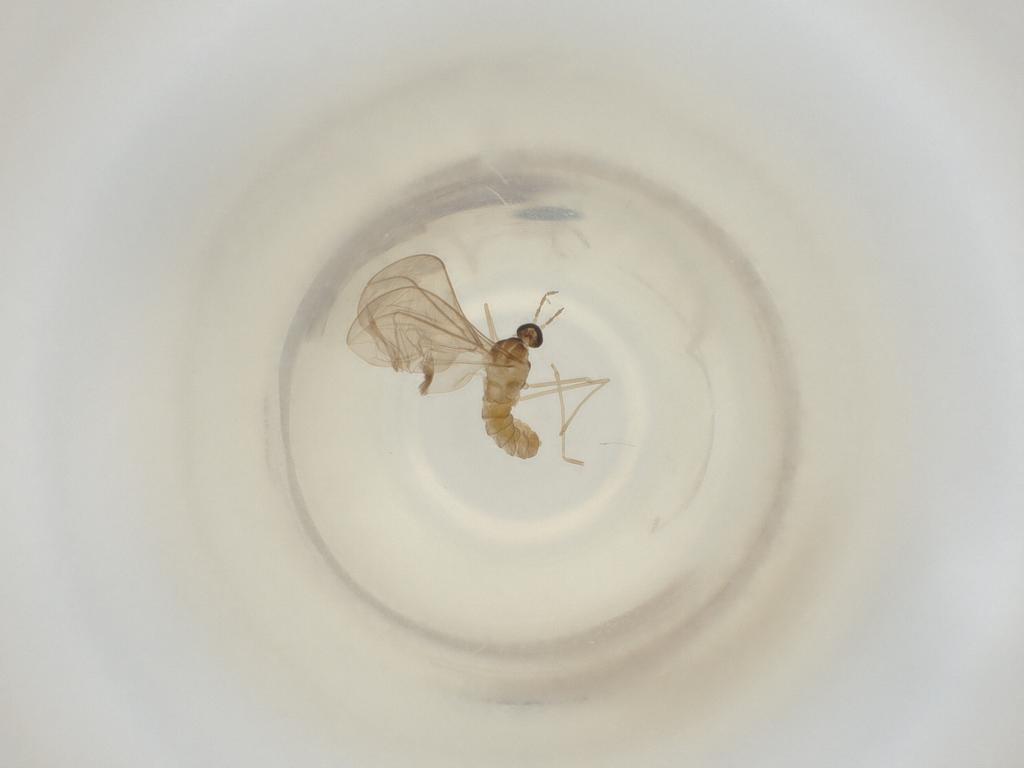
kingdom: Animalia
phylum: Arthropoda
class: Insecta
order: Diptera
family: Cecidomyiidae
